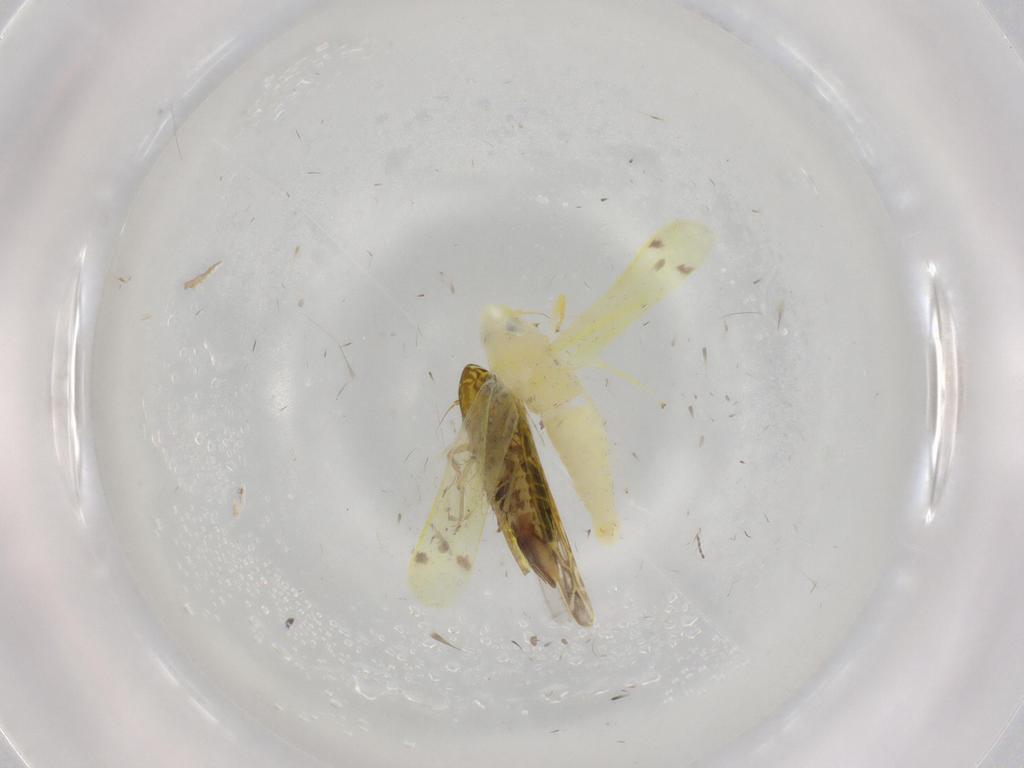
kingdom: Animalia
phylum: Arthropoda
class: Insecta
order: Hemiptera
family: Cicadellidae
